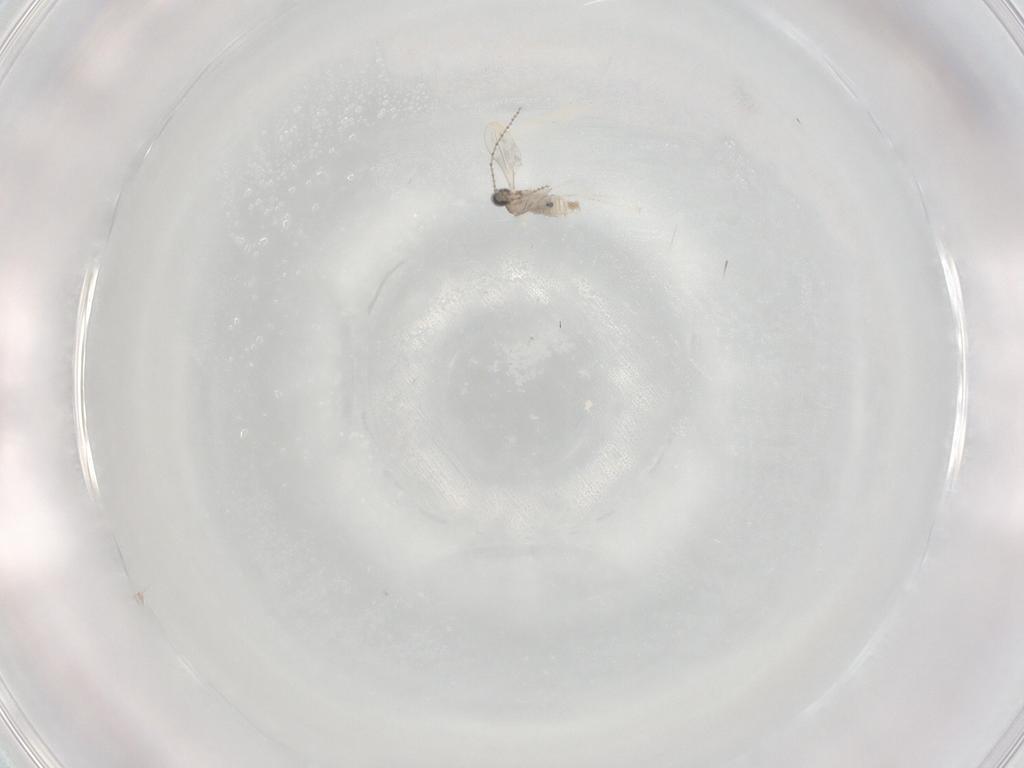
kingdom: Animalia
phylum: Arthropoda
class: Insecta
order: Diptera
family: Cecidomyiidae
